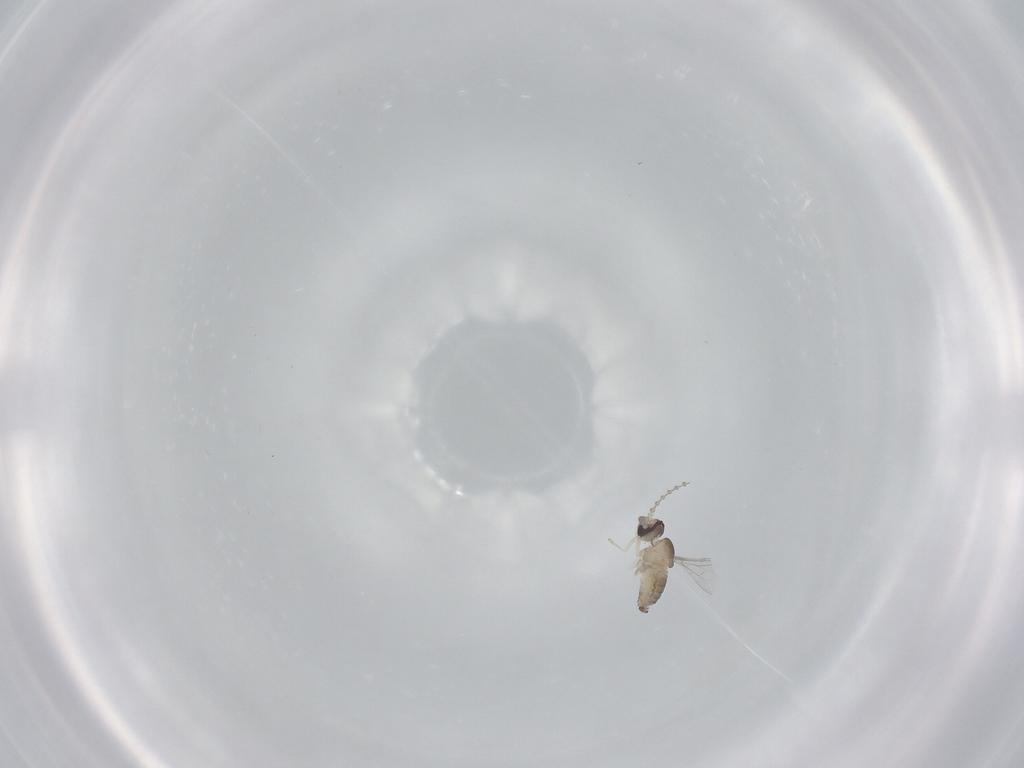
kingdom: Animalia
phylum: Arthropoda
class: Insecta
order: Diptera
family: Cecidomyiidae
